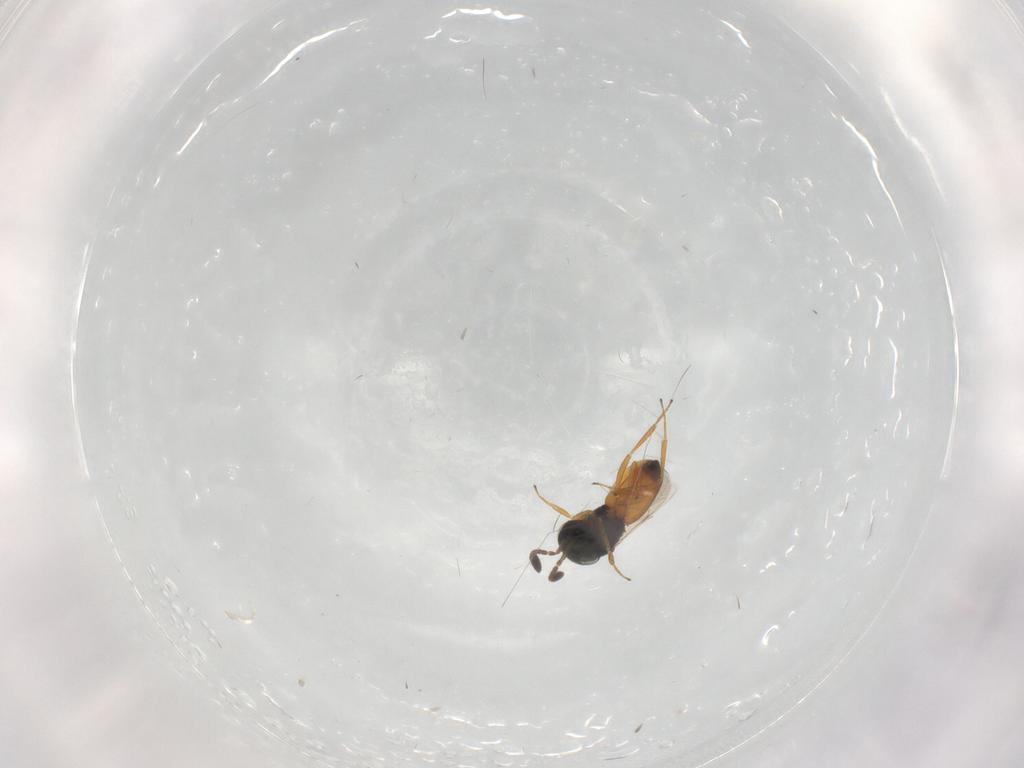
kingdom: Animalia
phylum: Arthropoda
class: Insecta
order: Hymenoptera
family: Scelionidae
